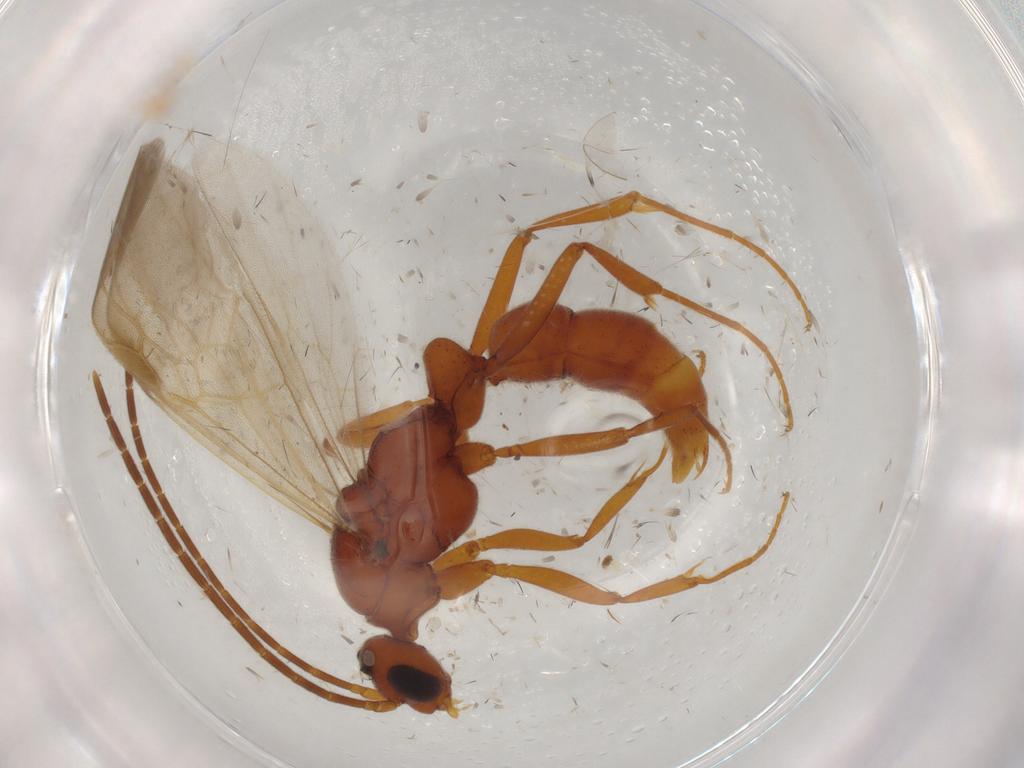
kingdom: Animalia
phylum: Arthropoda
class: Insecta
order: Hymenoptera
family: Formicidae
